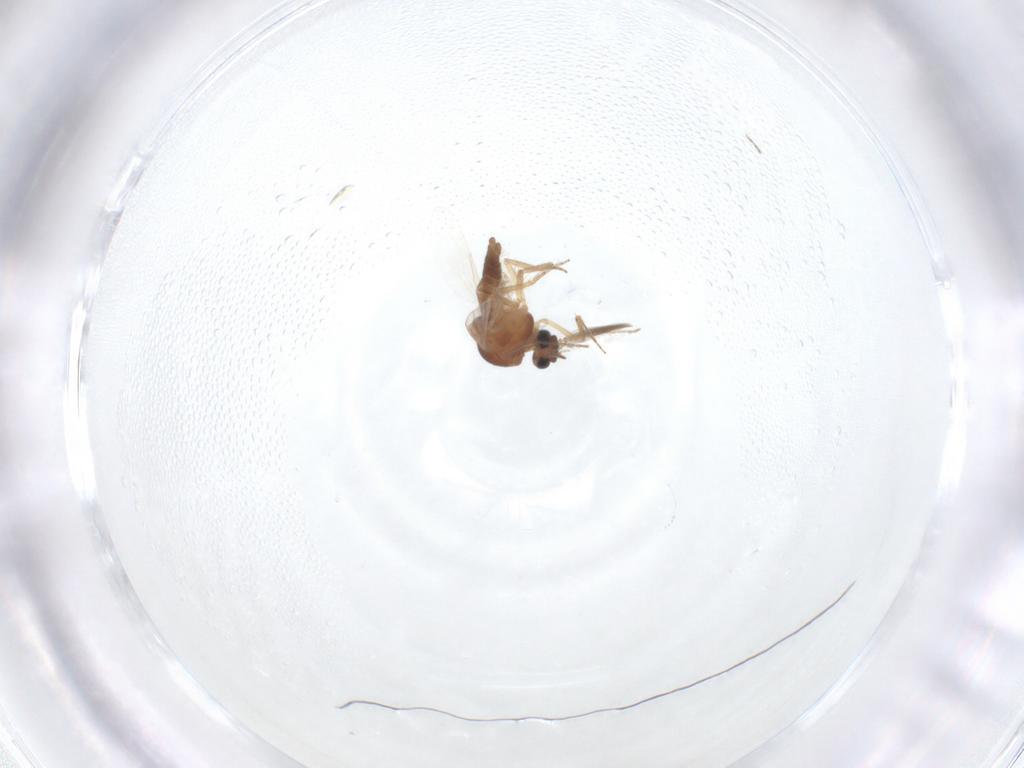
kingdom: Animalia
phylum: Arthropoda
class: Insecta
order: Diptera
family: Ceratopogonidae
